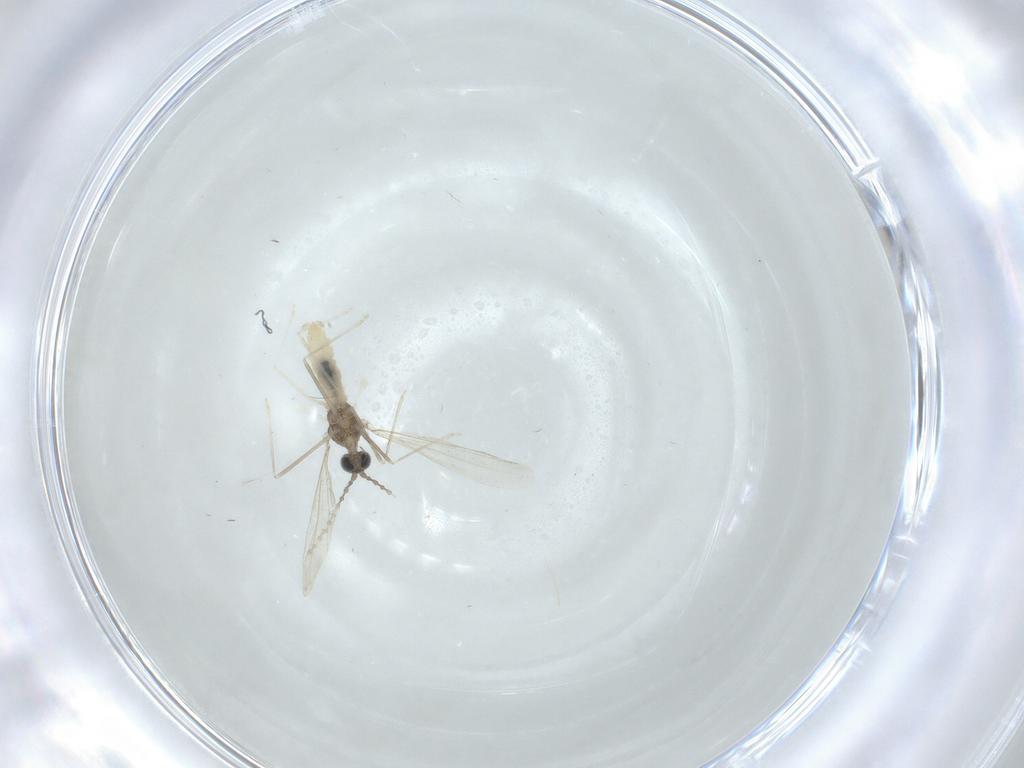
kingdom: Animalia
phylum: Arthropoda
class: Insecta
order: Diptera
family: Cecidomyiidae
